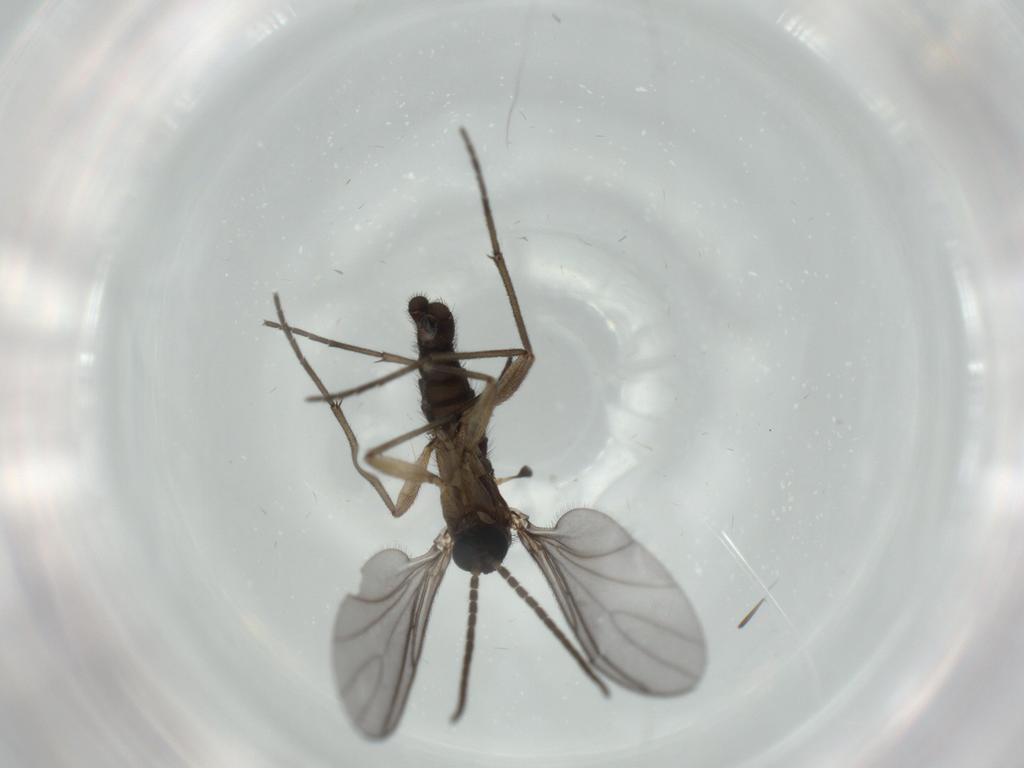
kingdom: Animalia
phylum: Arthropoda
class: Insecta
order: Diptera
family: Sciaridae
